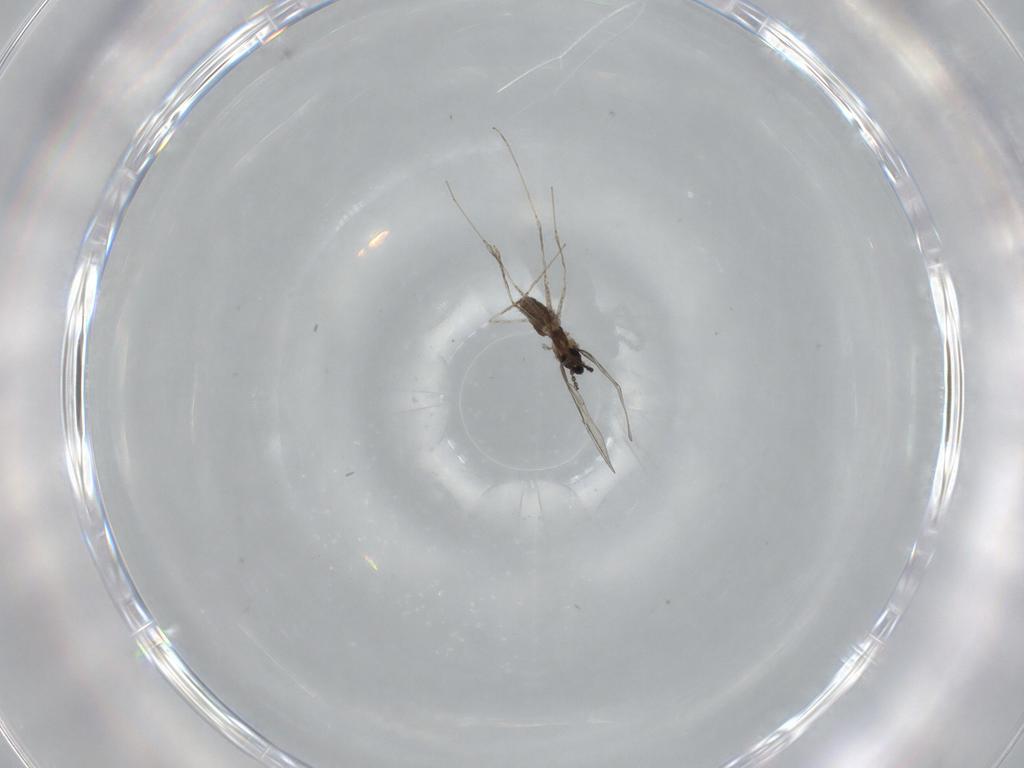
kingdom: Animalia
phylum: Arthropoda
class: Insecta
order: Diptera
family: Cecidomyiidae
